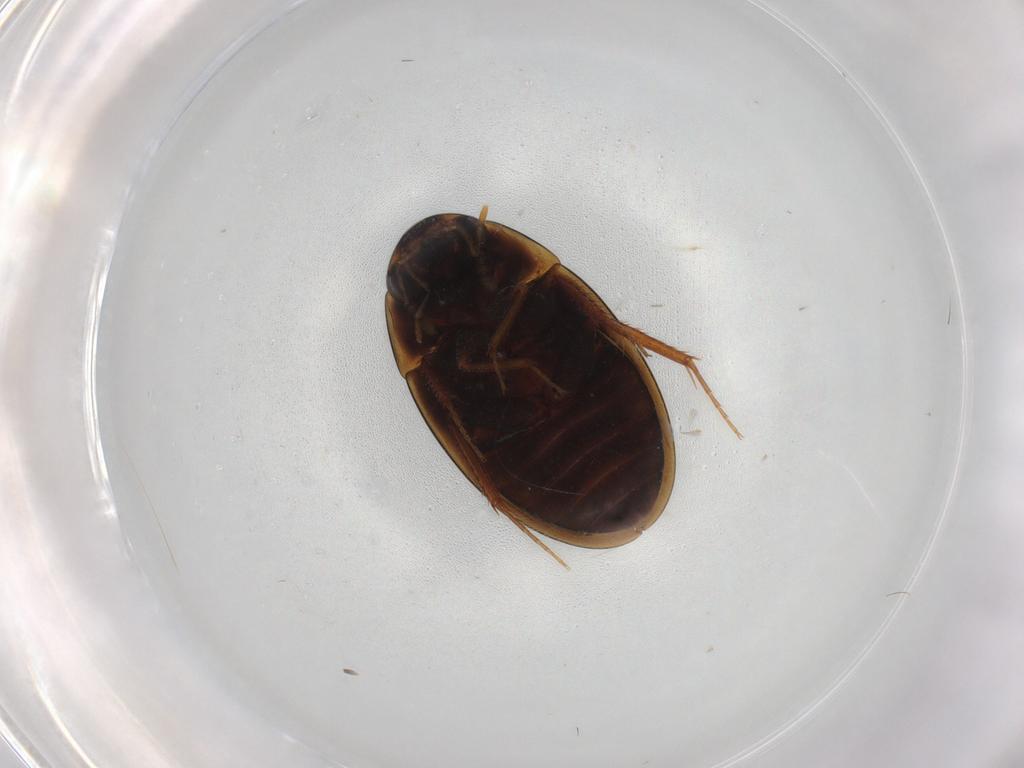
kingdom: Animalia
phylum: Arthropoda
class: Insecta
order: Coleoptera
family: Hydrophilidae
